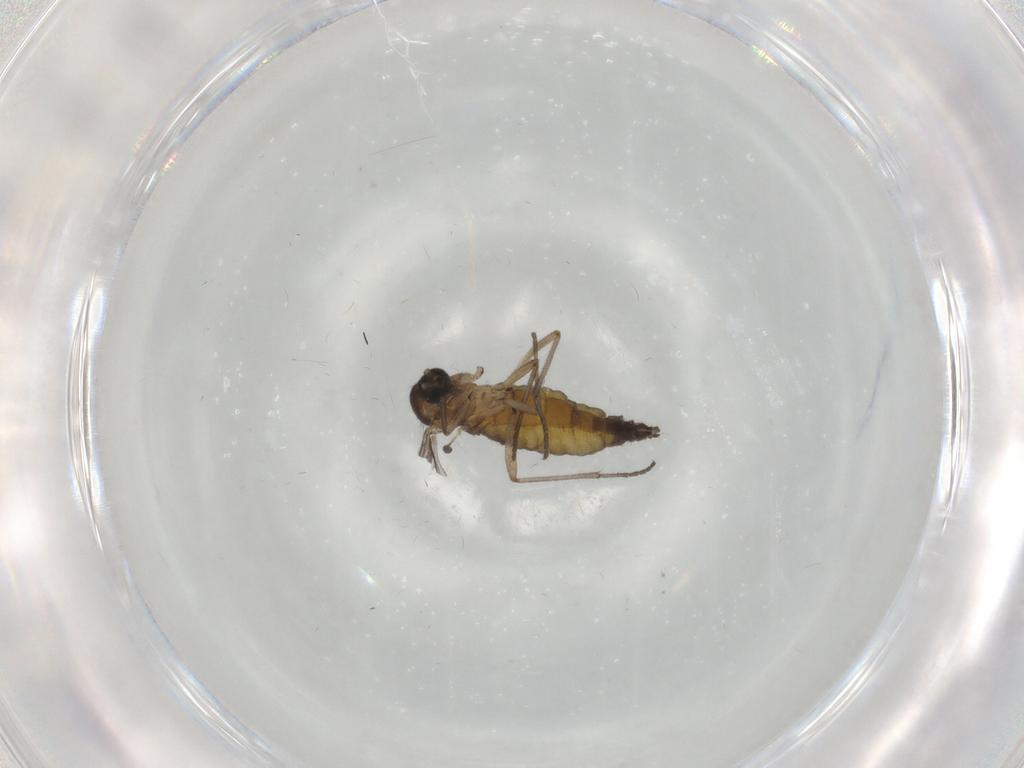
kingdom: Animalia
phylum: Arthropoda
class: Insecta
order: Diptera
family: Sciaridae
